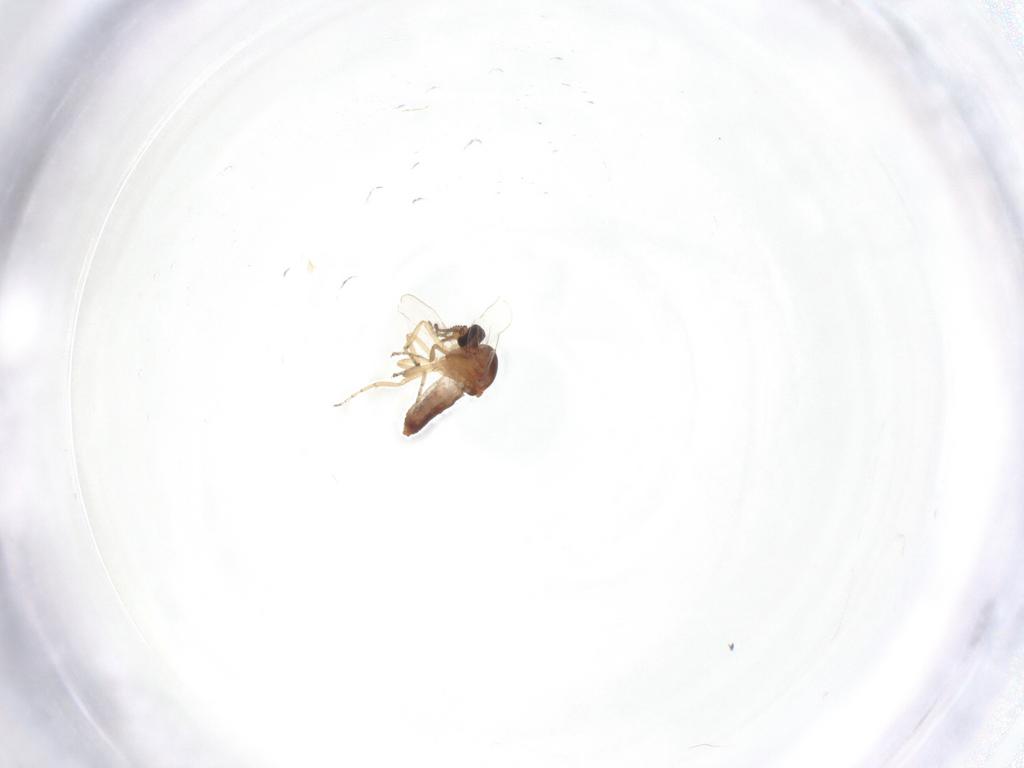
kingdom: Animalia
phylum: Arthropoda
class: Insecta
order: Diptera
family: Ceratopogonidae
